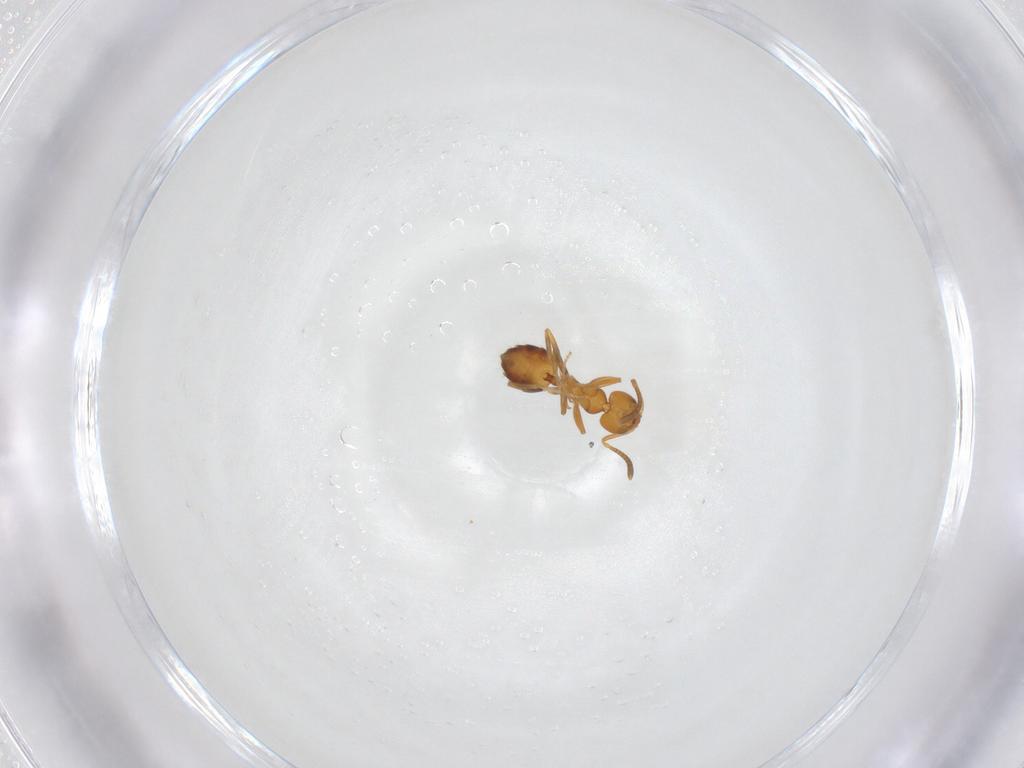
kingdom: Animalia
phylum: Arthropoda
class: Insecta
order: Hymenoptera
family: Formicidae
